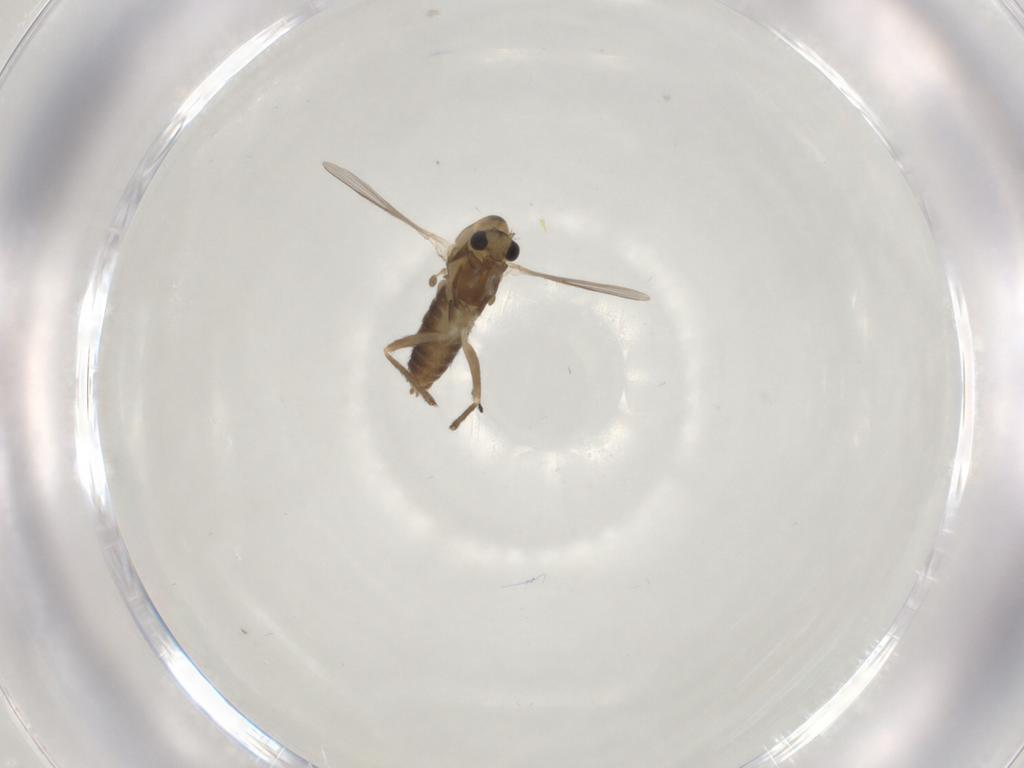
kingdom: Animalia
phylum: Arthropoda
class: Insecta
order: Diptera
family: Chironomidae
